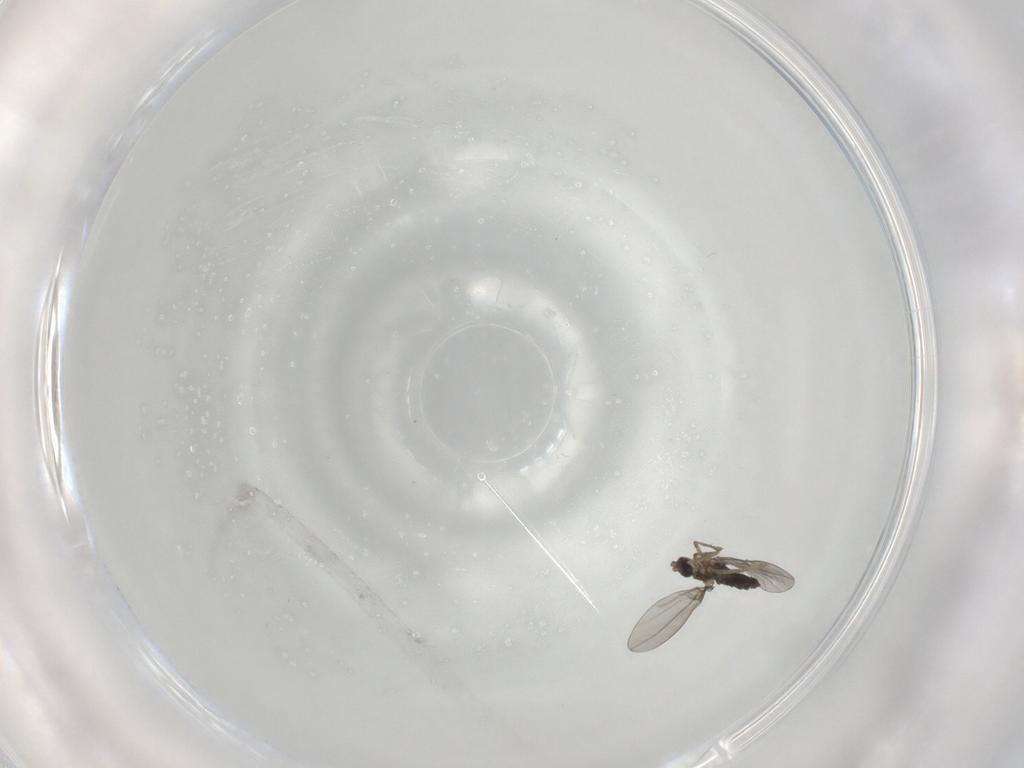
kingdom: Animalia
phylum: Arthropoda
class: Insecta
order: Diptera
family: Cecidomyiidae
